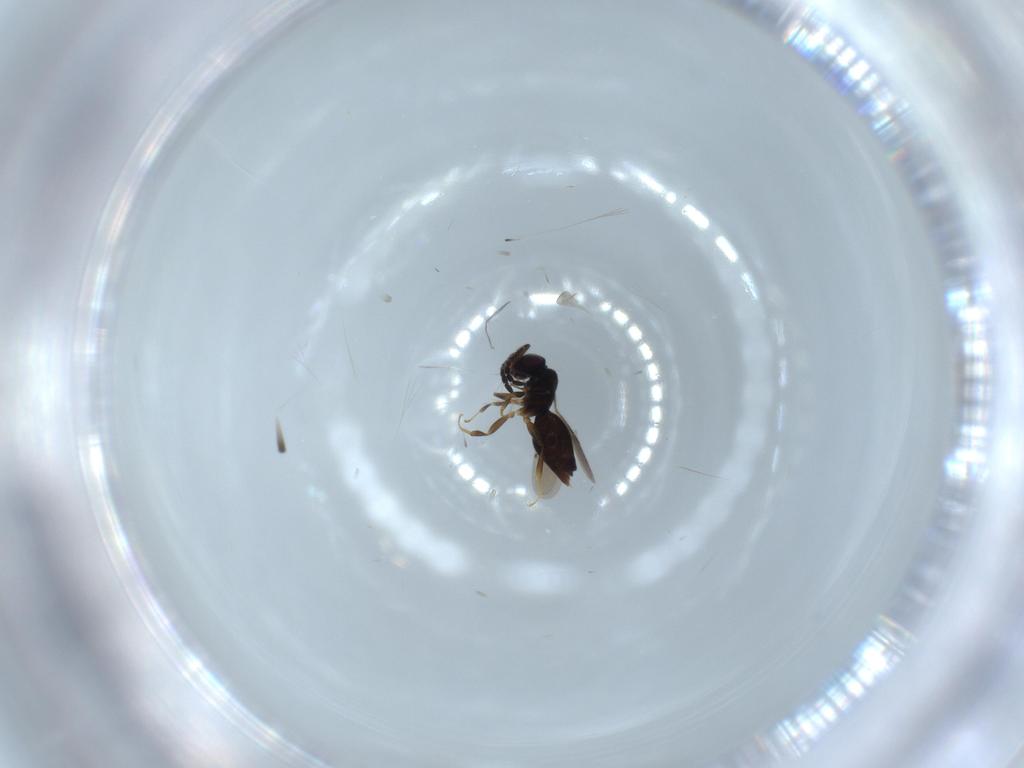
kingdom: Animalia
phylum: Arthropoda
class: Insecta
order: Hymenoptera
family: Ceraphronidae
